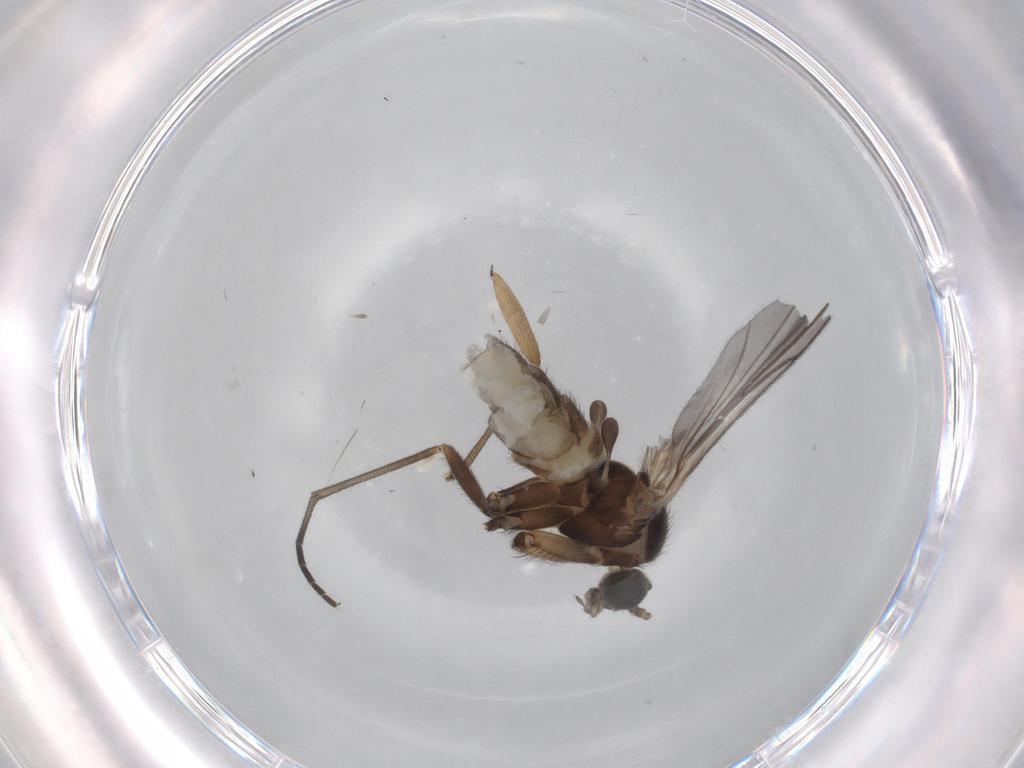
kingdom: Animalia
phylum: Arthropoda
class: Insecta
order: Diptera
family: Sciaridae
